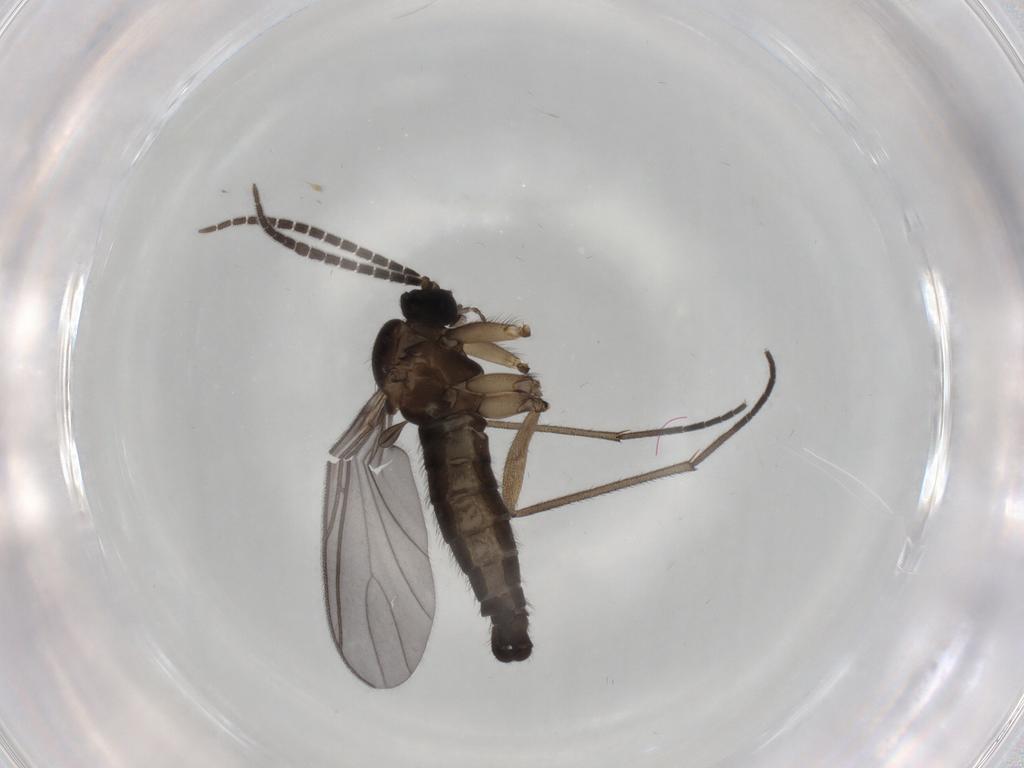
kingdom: Animalia
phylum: Arthropoda
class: Insecta
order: Diptera
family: Sciaridae
